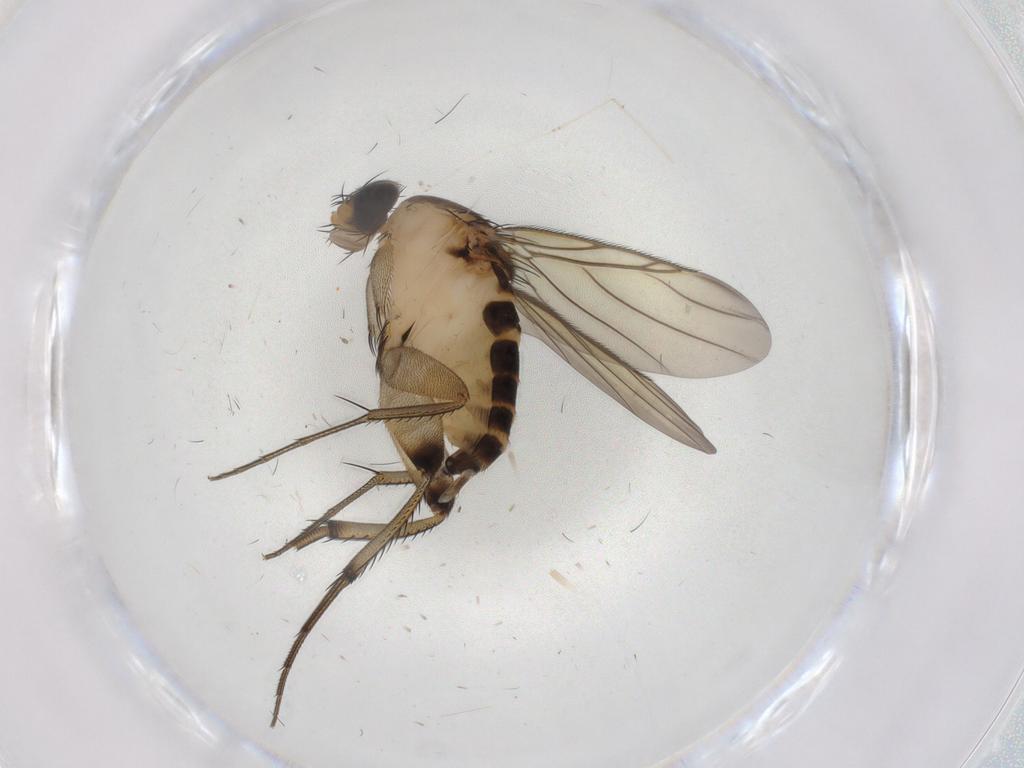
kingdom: Animalia
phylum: Arthropoda
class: Insecta
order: Diptera
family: Phoridae
